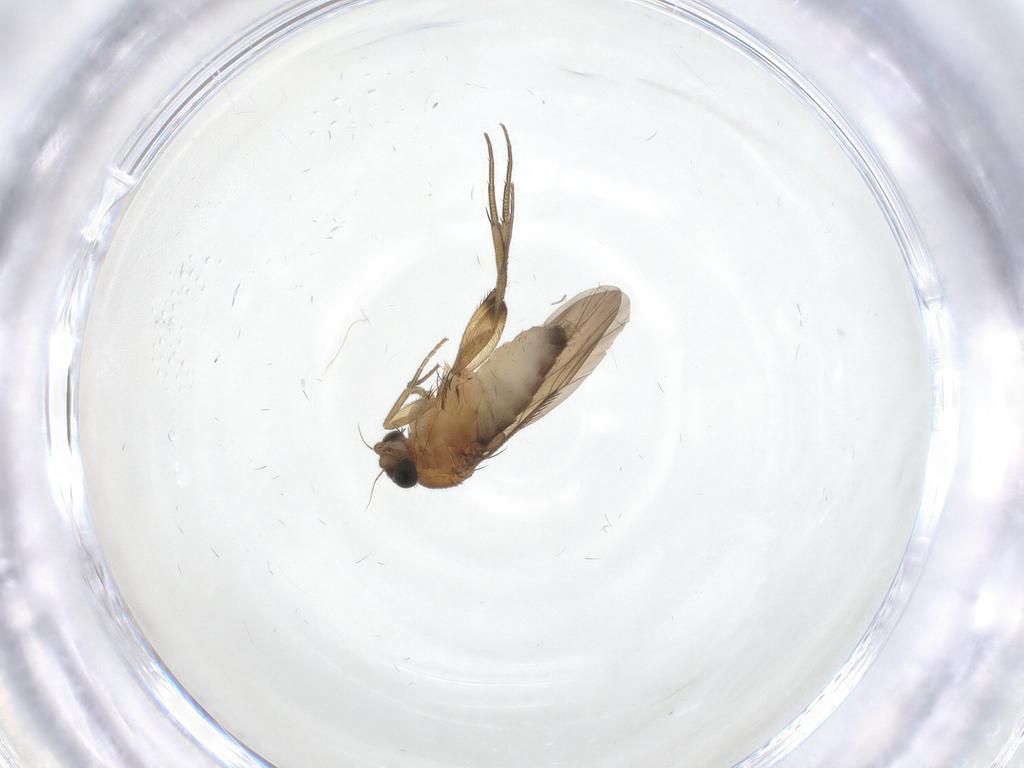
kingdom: Animalia
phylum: Arthropoda
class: Insecta
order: Diptera
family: Phoridae
